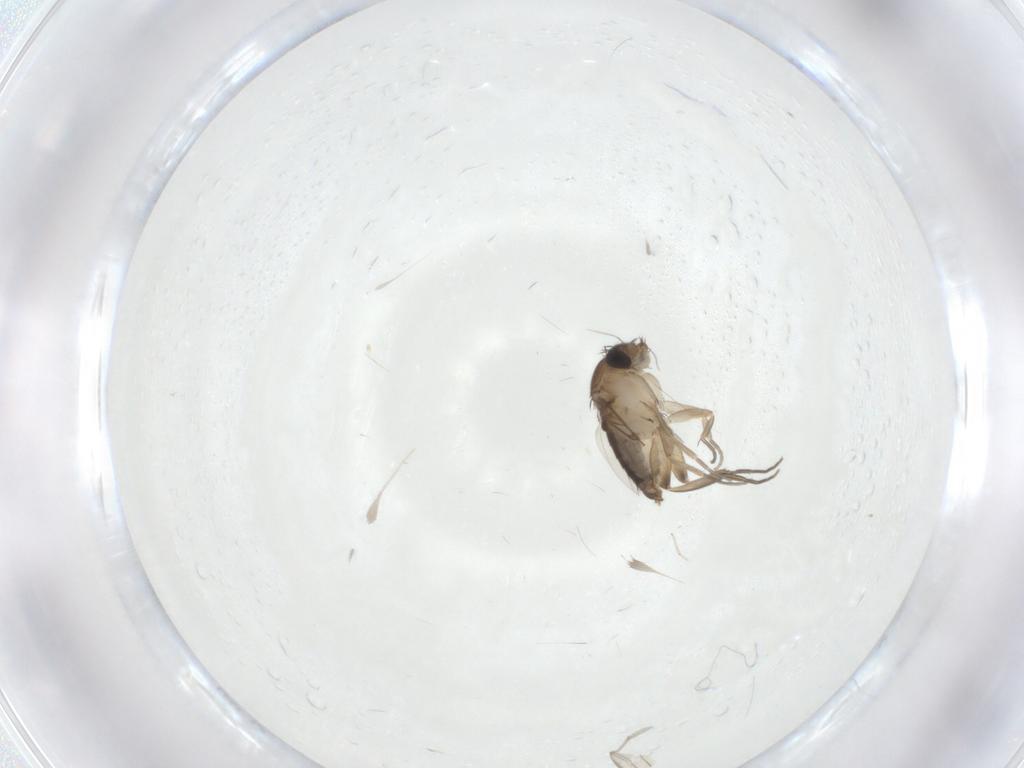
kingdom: Animalia
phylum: Arthropoda
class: Insecta
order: Diptera
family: Phoridae
